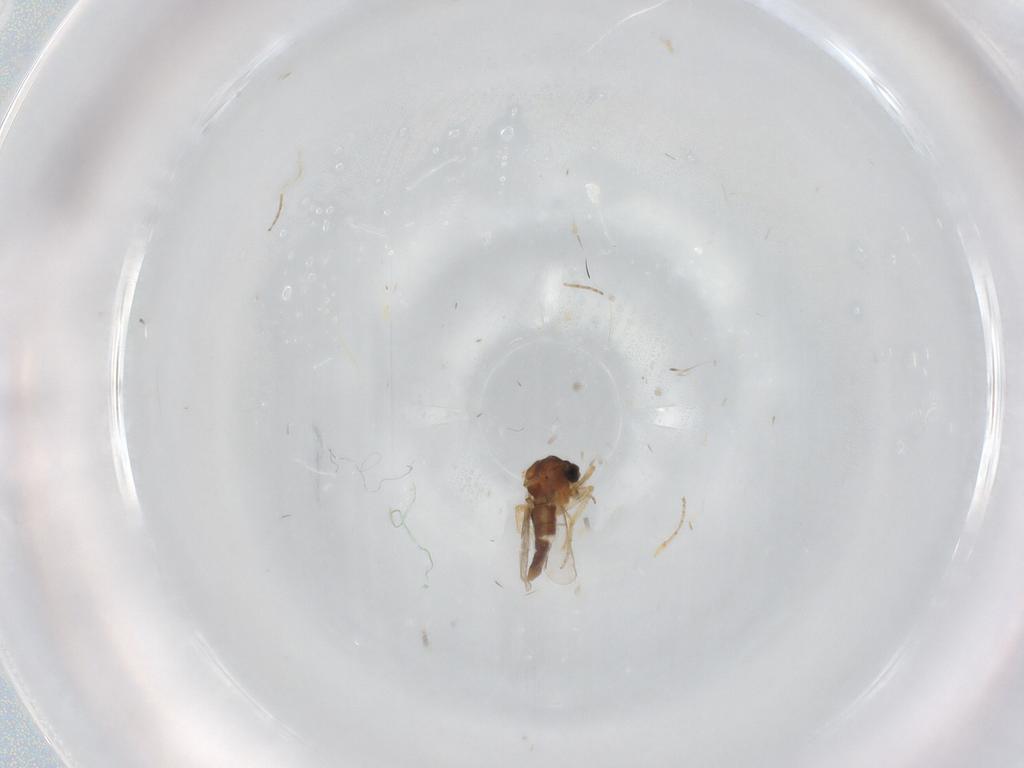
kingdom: Animalia
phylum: Arthropoda
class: Insecta
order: Diptera
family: Ceratopogonidae
